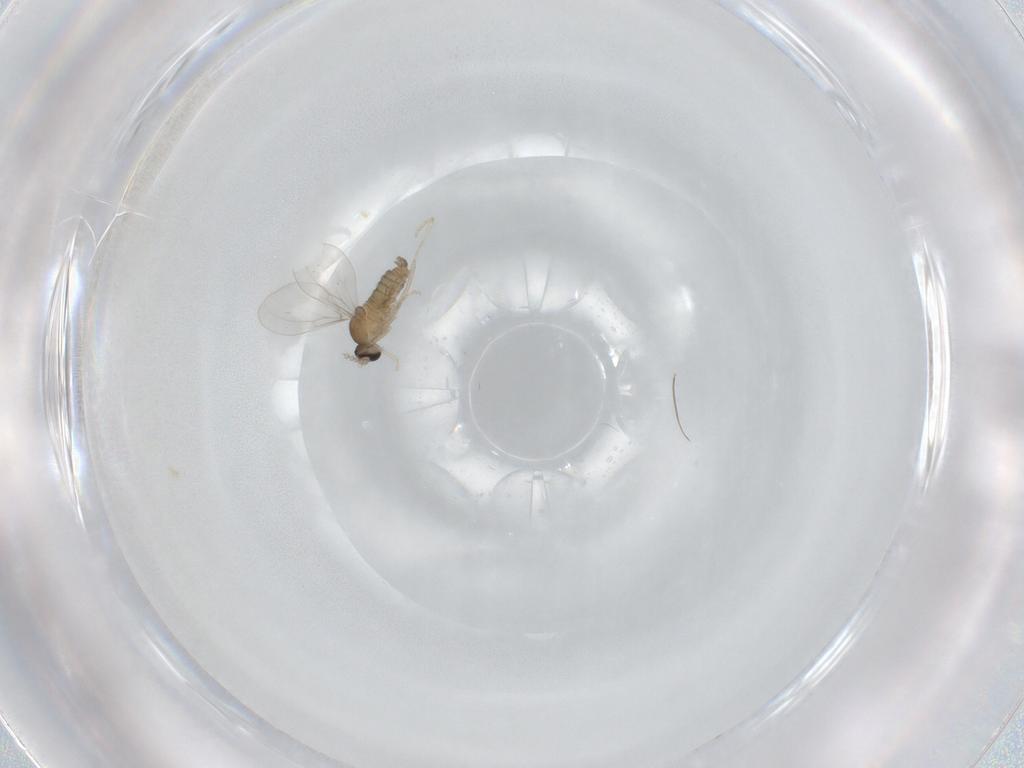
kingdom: Animalia
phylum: Arthropoda
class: Insecta
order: Diptera
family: Cecidomyiidae
